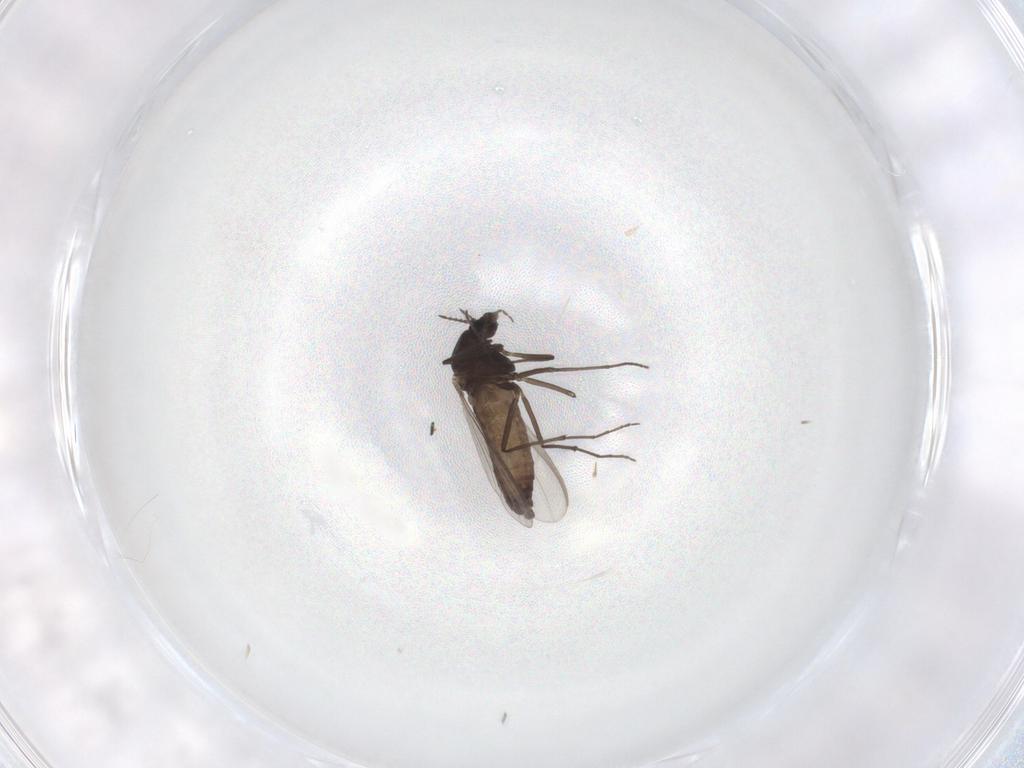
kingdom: Animalia
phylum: Arthropoda
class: Insecta
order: Diptera
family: Chironomidae
